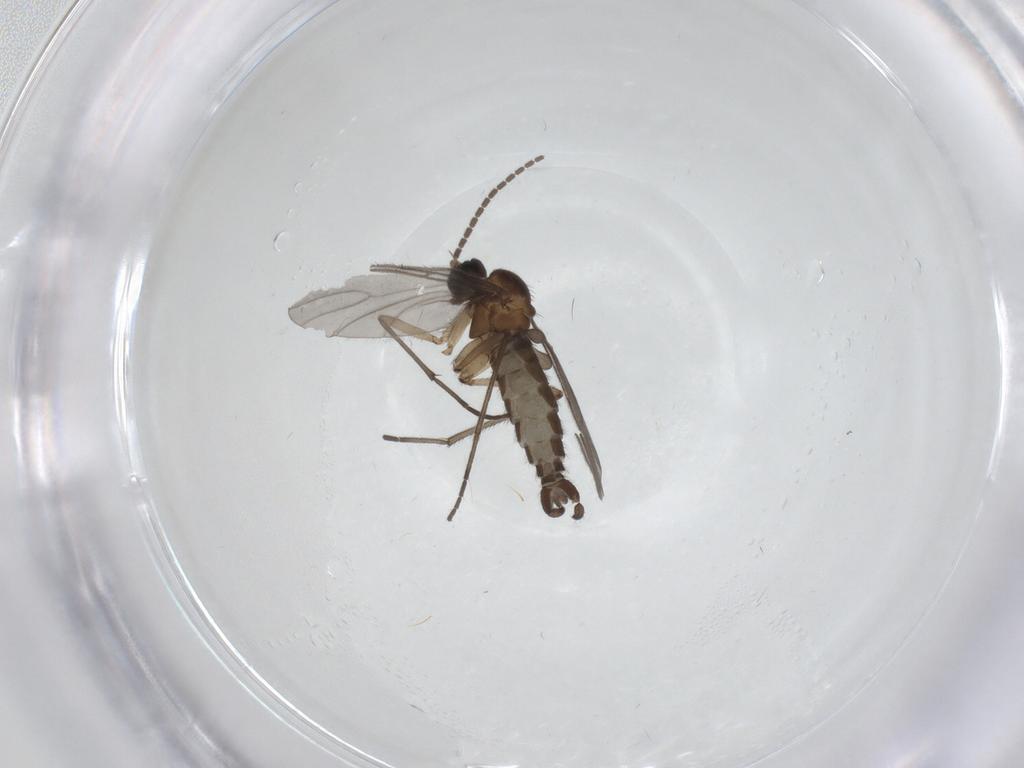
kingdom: Animalia
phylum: Arthropoda
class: Insecta
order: Diptera
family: Sciaridae
